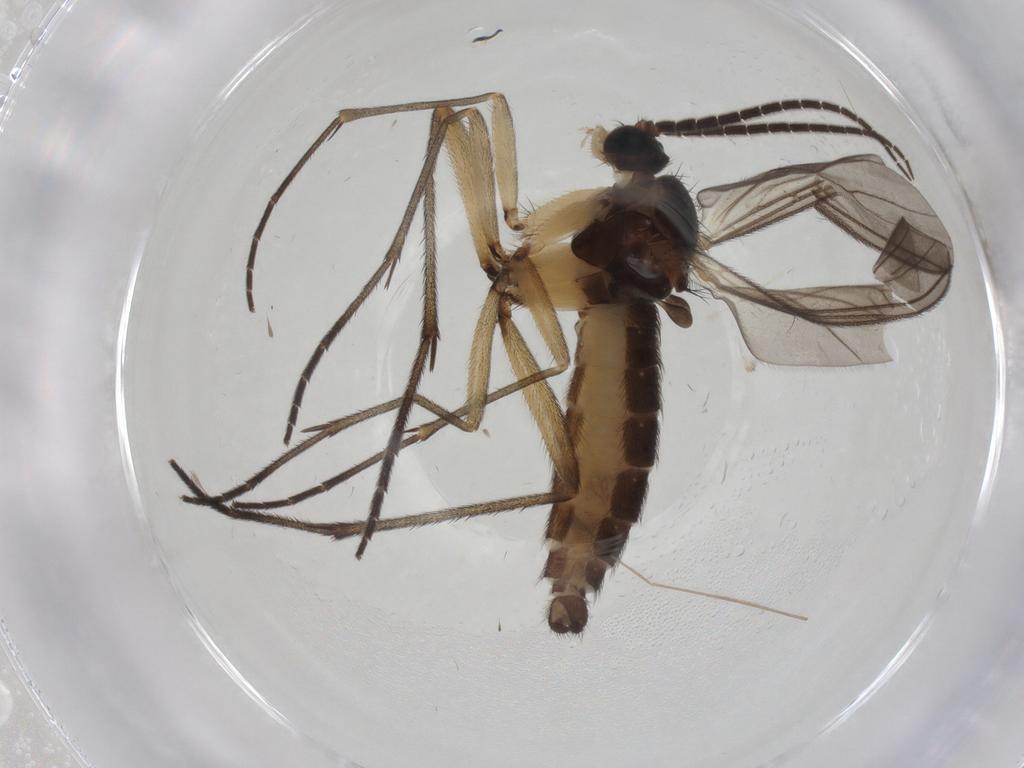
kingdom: Animalia
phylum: Arthropoda
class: Insecta
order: Diptera
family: Sciaridae
